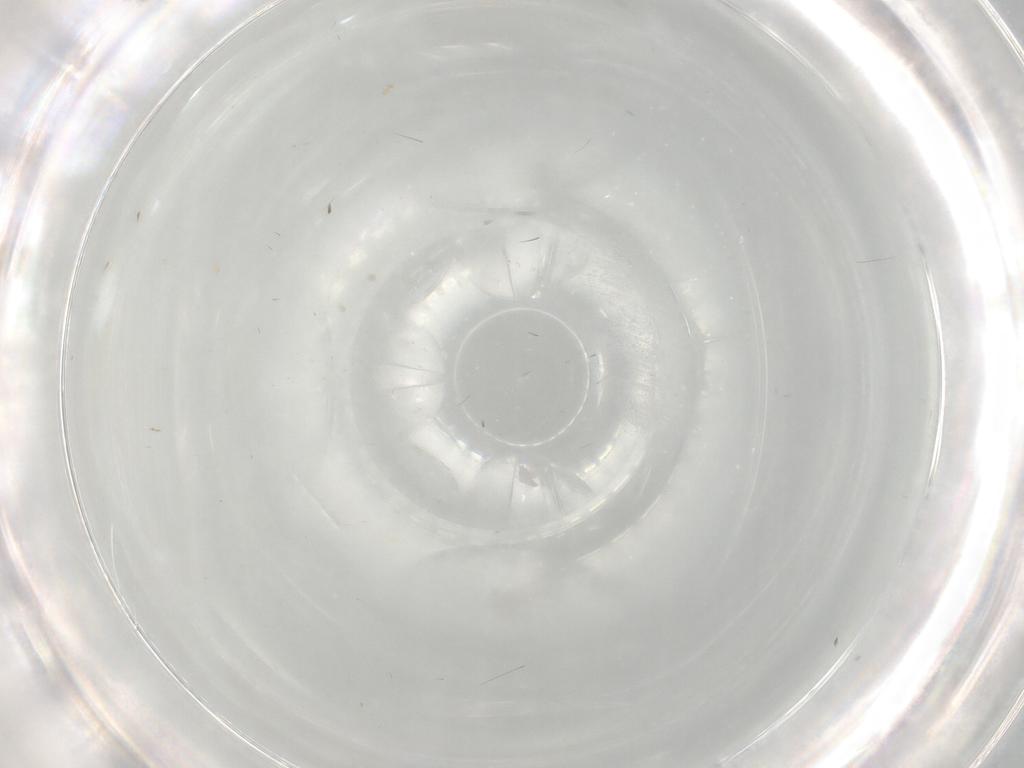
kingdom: Animalia
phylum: Arthropoda
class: Insecta
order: Lepidoptera
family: Cosmopterigidae
